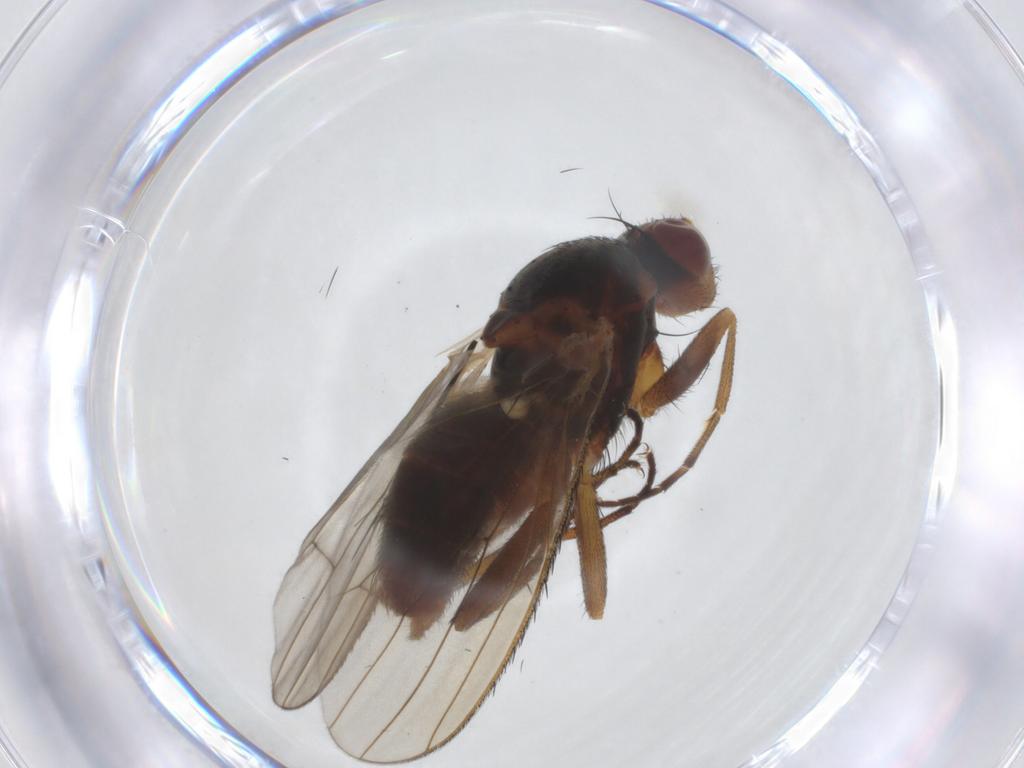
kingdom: Animalia
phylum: Arthropoda
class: Insecta
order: Diptera
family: Heleomyzidae
